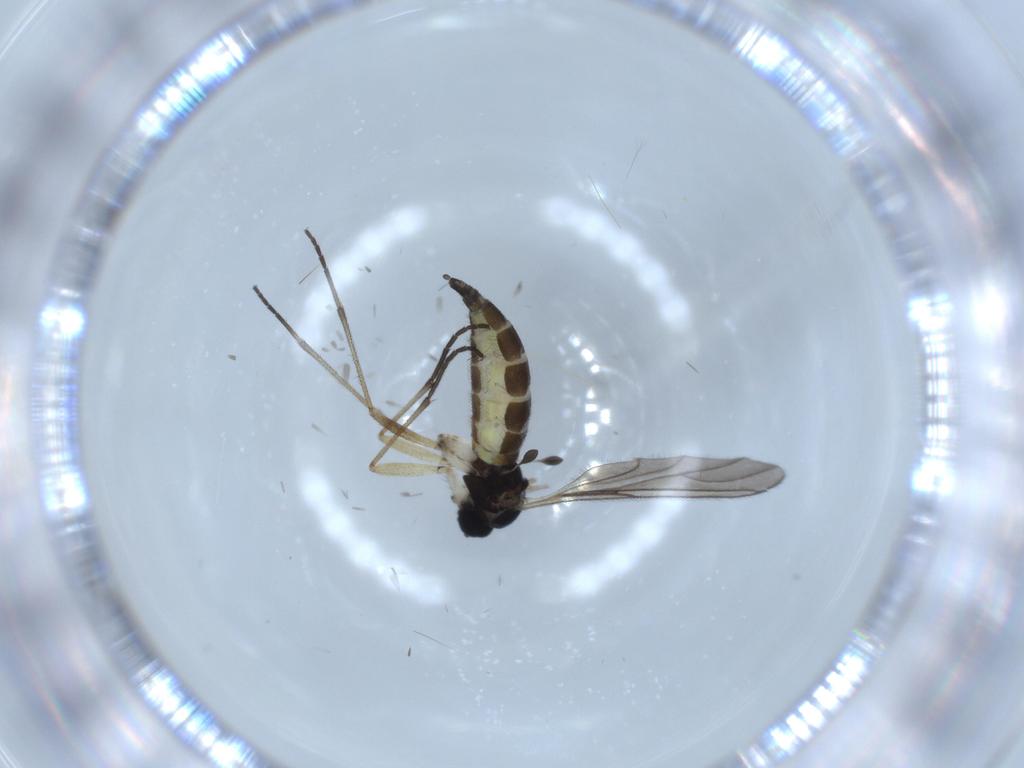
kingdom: Animalia
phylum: Arthropoda
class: Insecta
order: Diptera
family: Sciaridae
